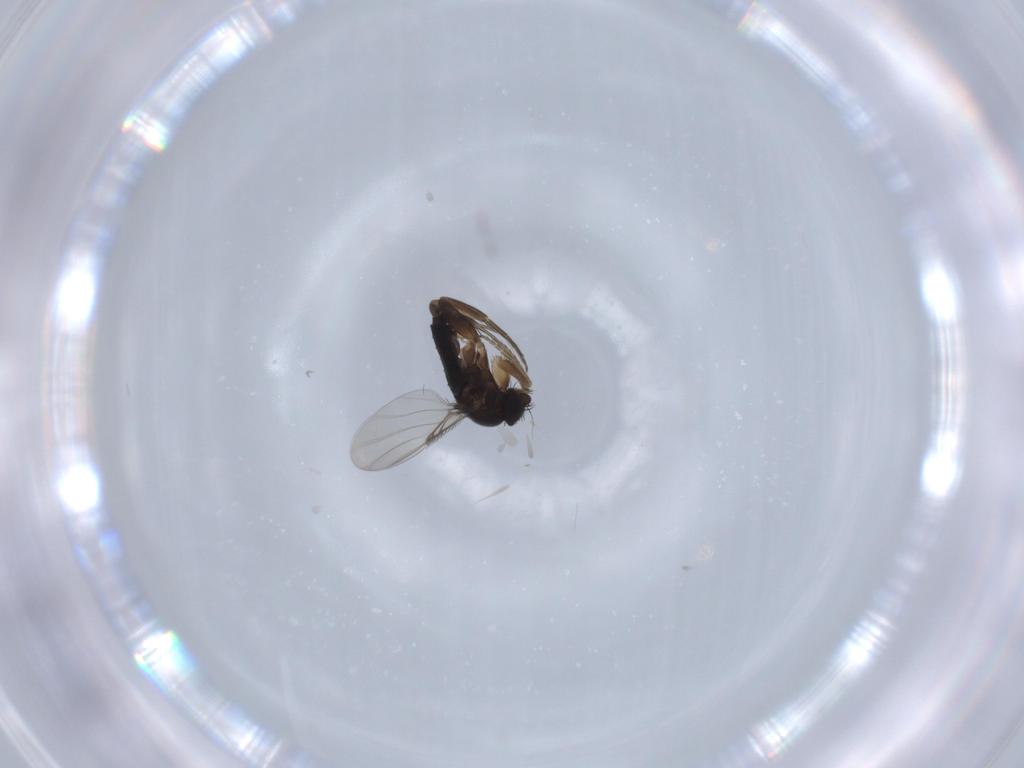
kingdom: Animalia
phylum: Arthropoda
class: Insecta
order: Diptera
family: Phoridae
